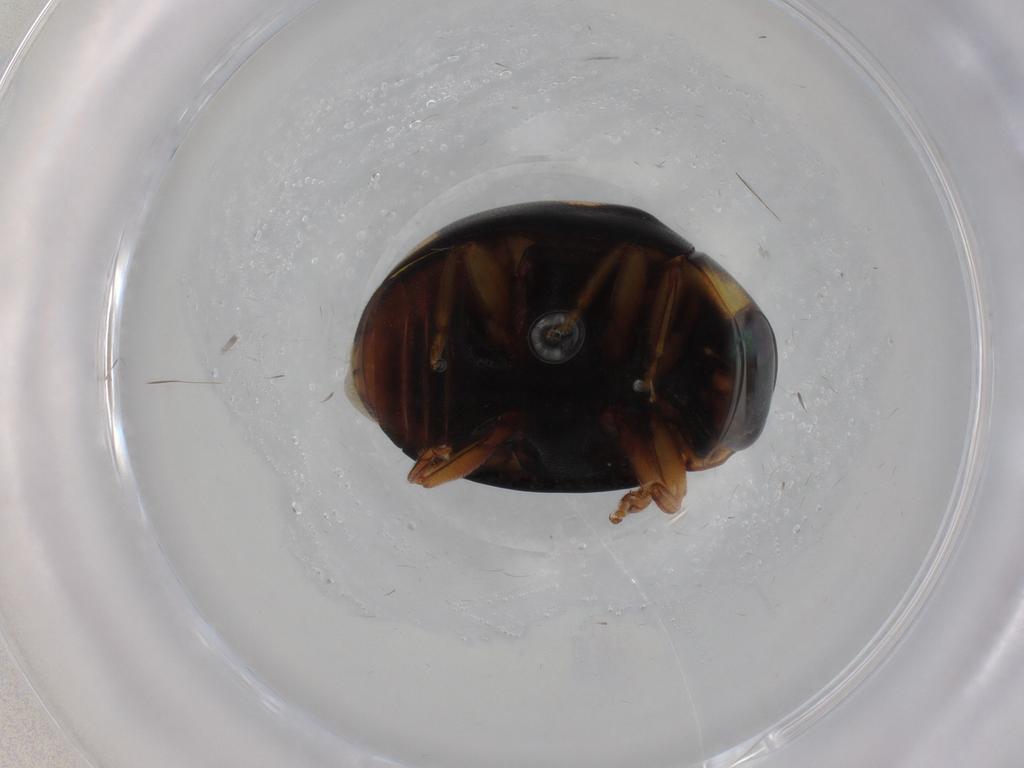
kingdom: Animalia
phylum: Arthropoda
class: Insecta
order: Coleoptera
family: Coccinellidae
